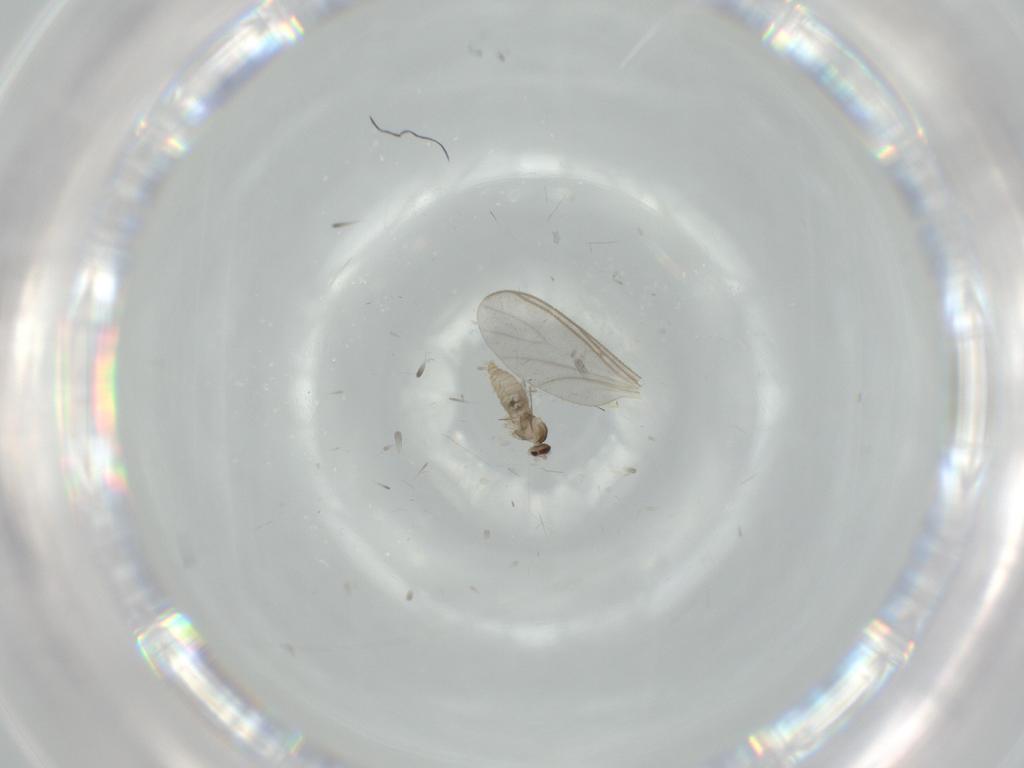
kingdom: Animalia
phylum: Arthropoda
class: Insecta
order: Diptera
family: Cecidomyiidae
